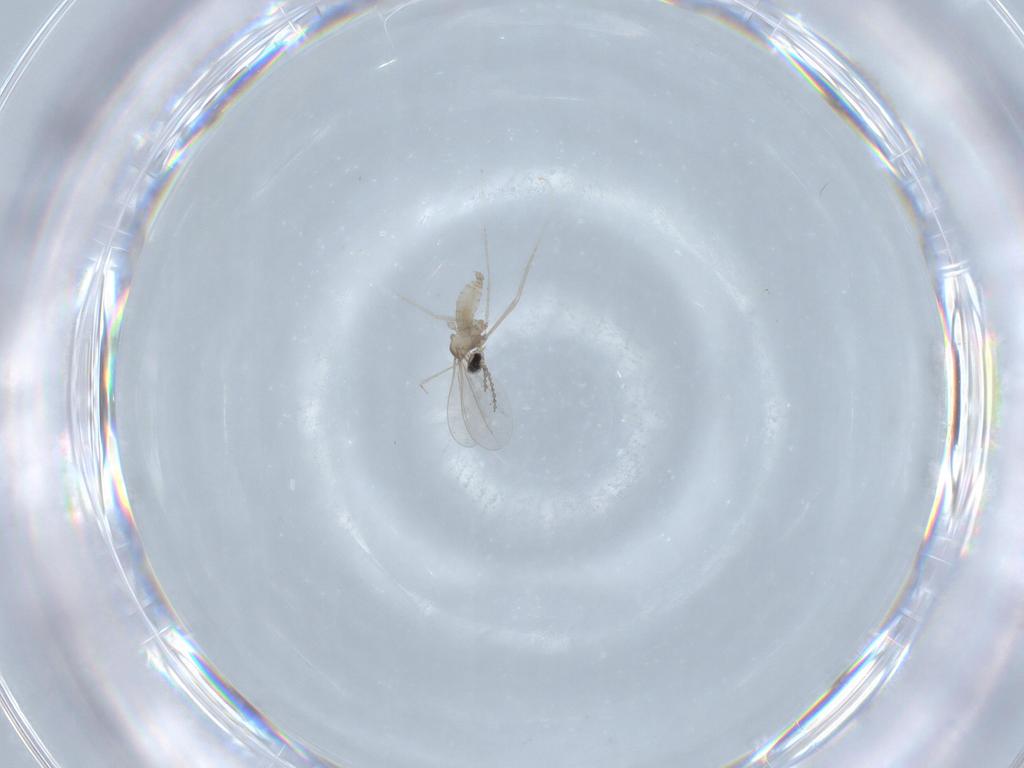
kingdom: Animalia
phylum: Arthropoda
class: Insecta
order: Diptera
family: Cecidomyiidae
